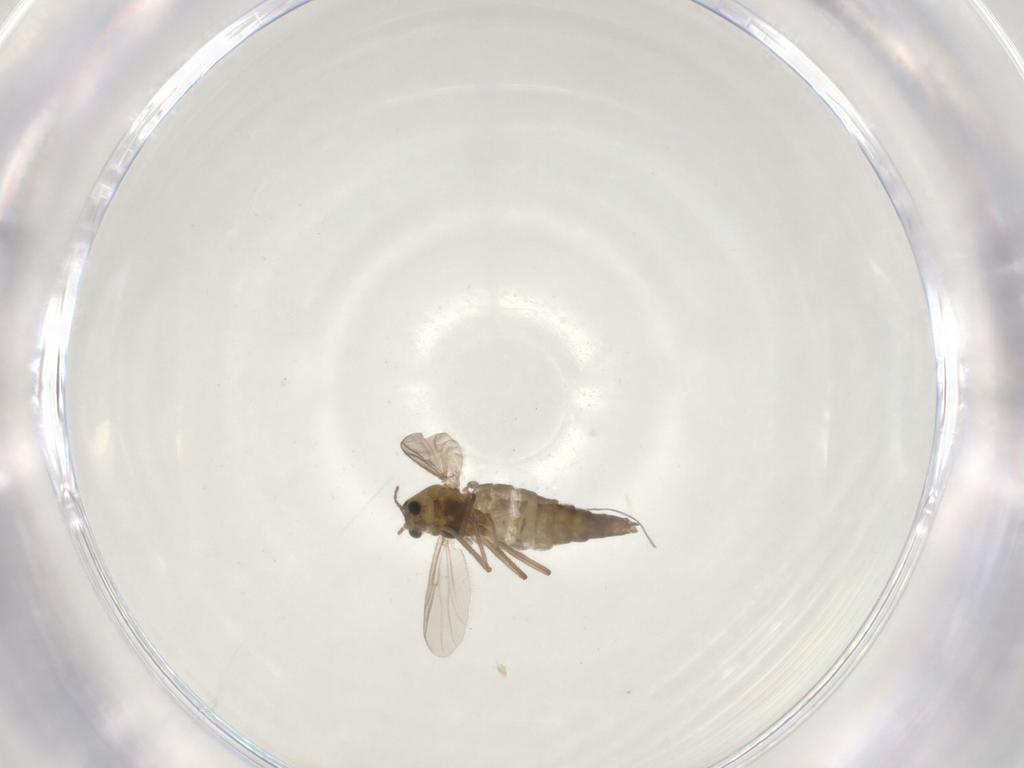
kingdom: Animalia
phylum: Arthropoda
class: Insecta
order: Diptera
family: Chironomidae
